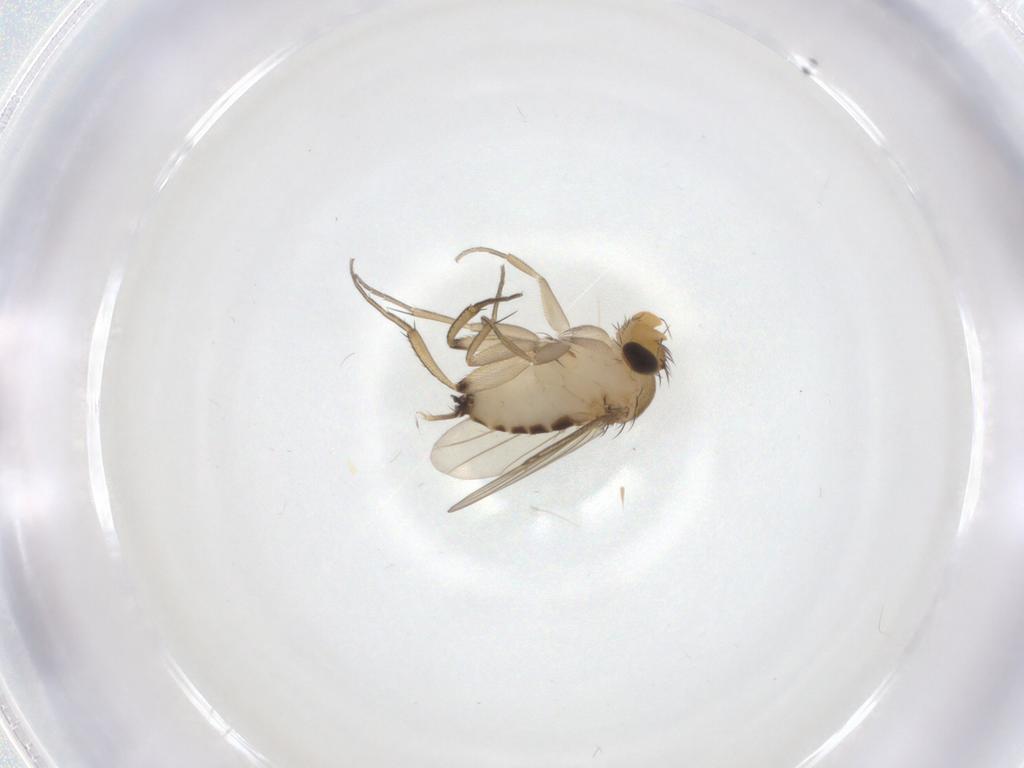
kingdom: Animalia
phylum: Arthropoda
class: Insecta
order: Diptera
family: Phoridae
